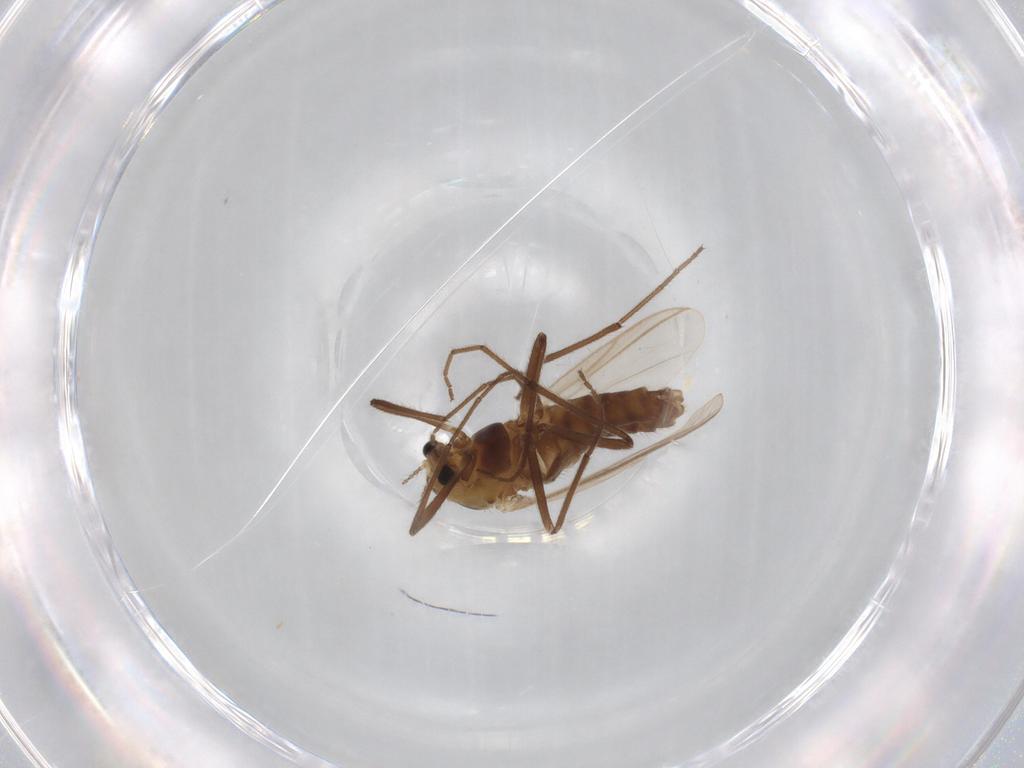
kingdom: Animalia
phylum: Arthropoda
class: Insecta
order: Diptera
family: Chironomidae
